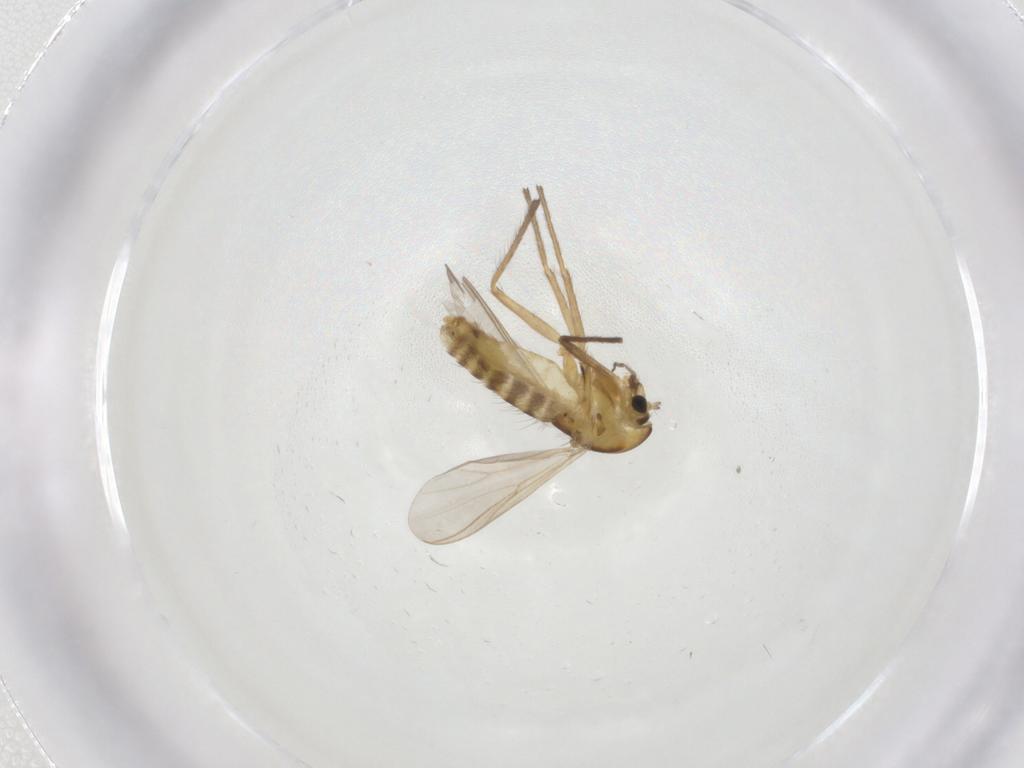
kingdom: Animalia
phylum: Arthropoda
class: Insecta
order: Diptera
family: Chironomidae
